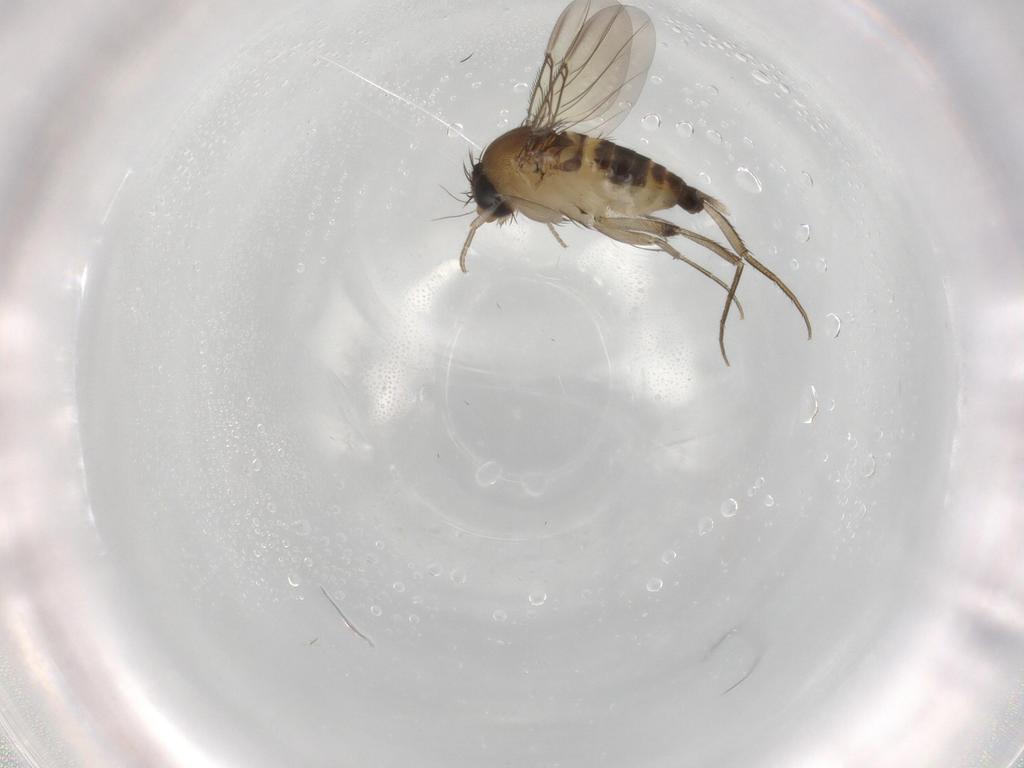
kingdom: Animalia
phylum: Arthropoda
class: Insecta
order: Diptera
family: Phoridae
